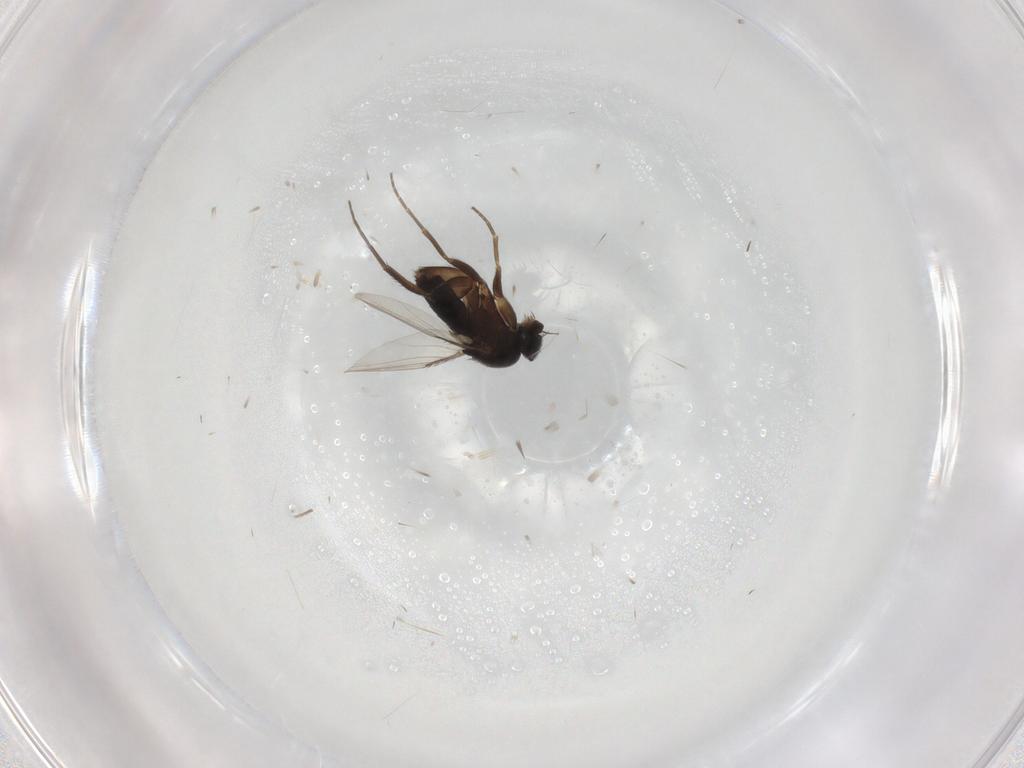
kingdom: Animalia
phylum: Arthropoda
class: Insecta
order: Diptera
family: Phoridae
